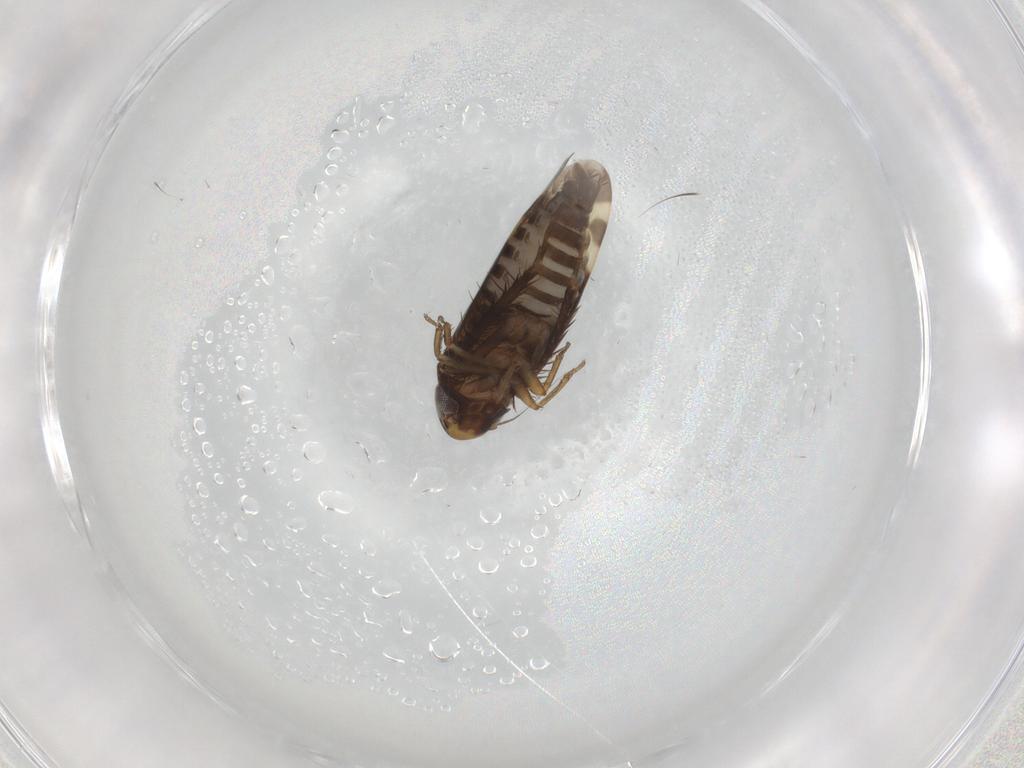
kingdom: Animalia
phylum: Arthropoda
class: Insecta
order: Hemiptera
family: Cicadellidae
